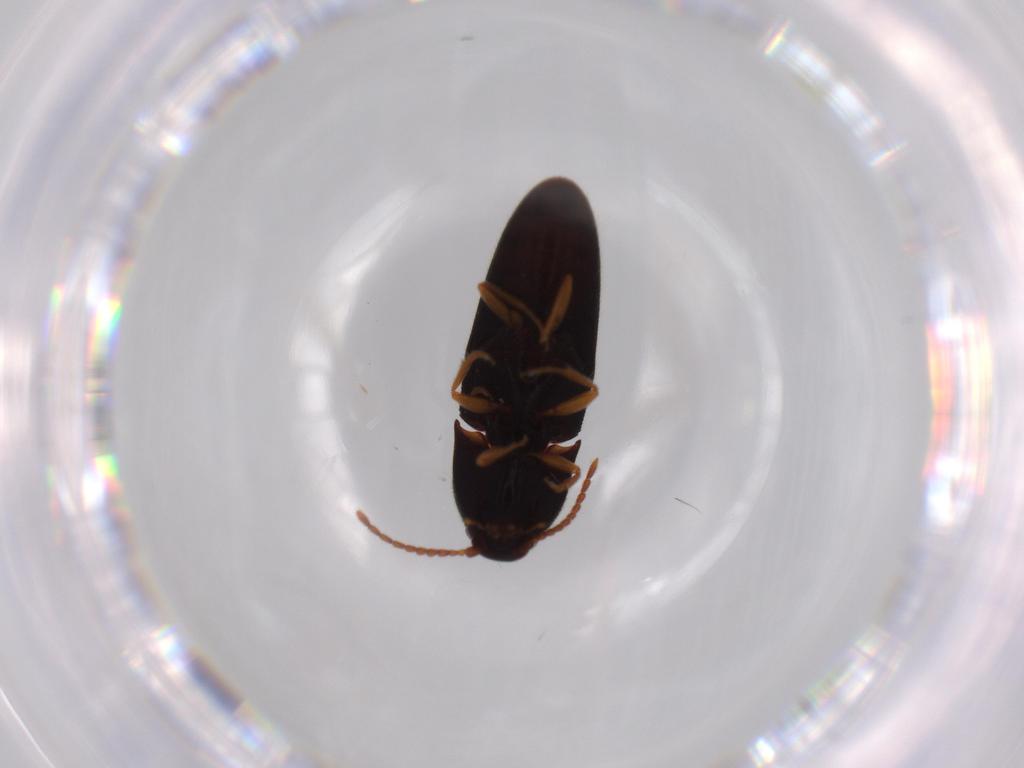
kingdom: Animalia
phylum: Arthropoda
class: Insecta
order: Coleoptera
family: Elateridae
